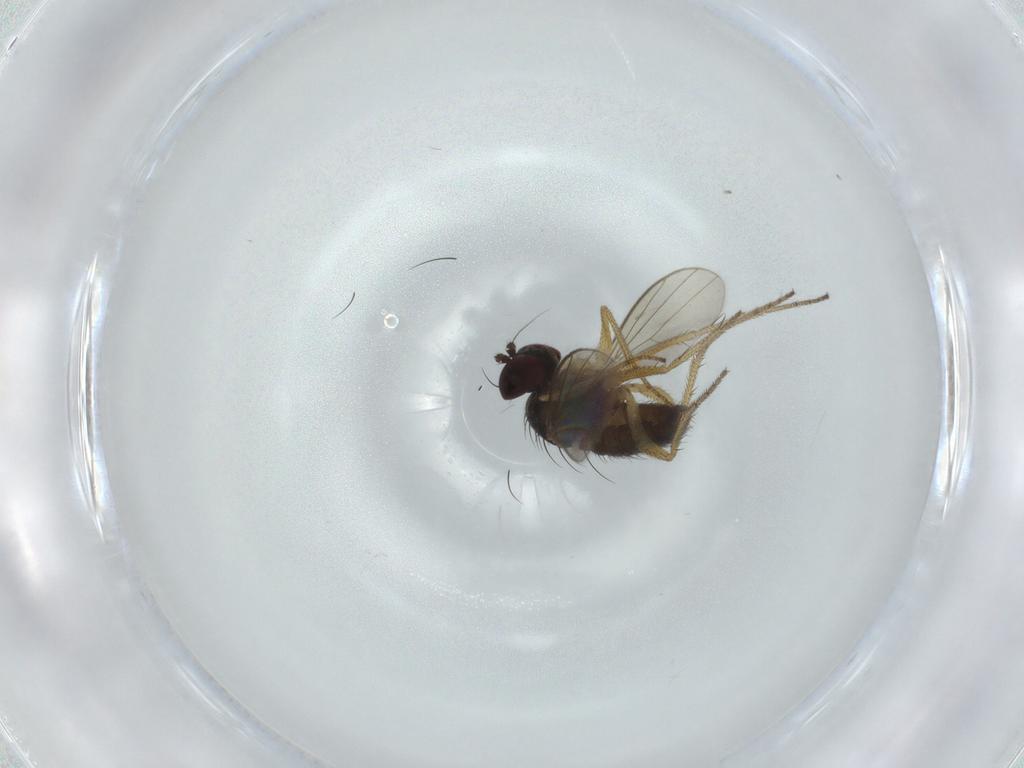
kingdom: Animalia
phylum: Arthropoda
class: Insecta
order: Diptera
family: Dolichopodidae
